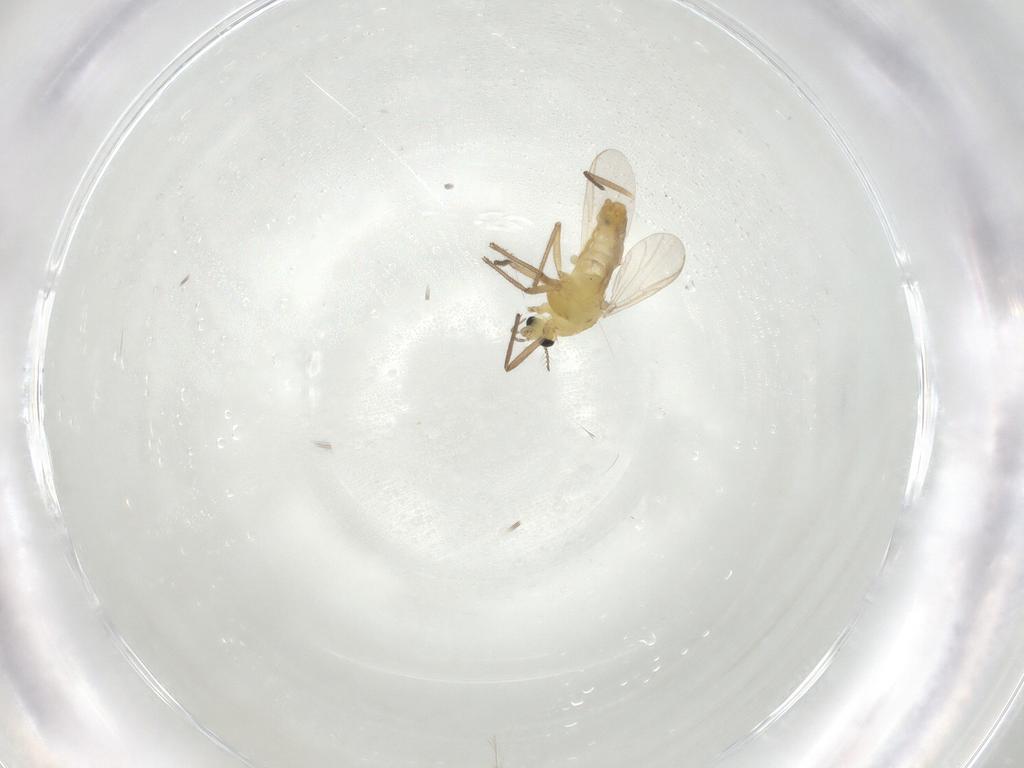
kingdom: Animalia
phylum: Arthropoda
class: Insecta
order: Diptera
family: Chironomidae
